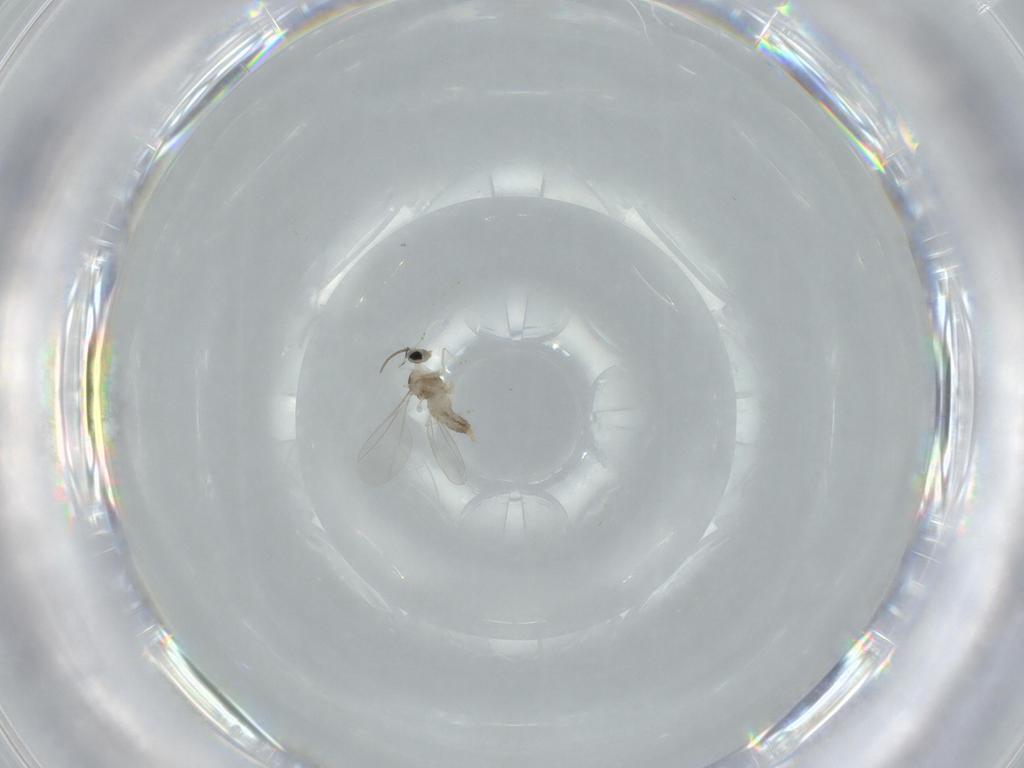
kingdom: Animalia
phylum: Arthropoda
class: Insecta
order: Diptera
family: Cecidomyiidae
